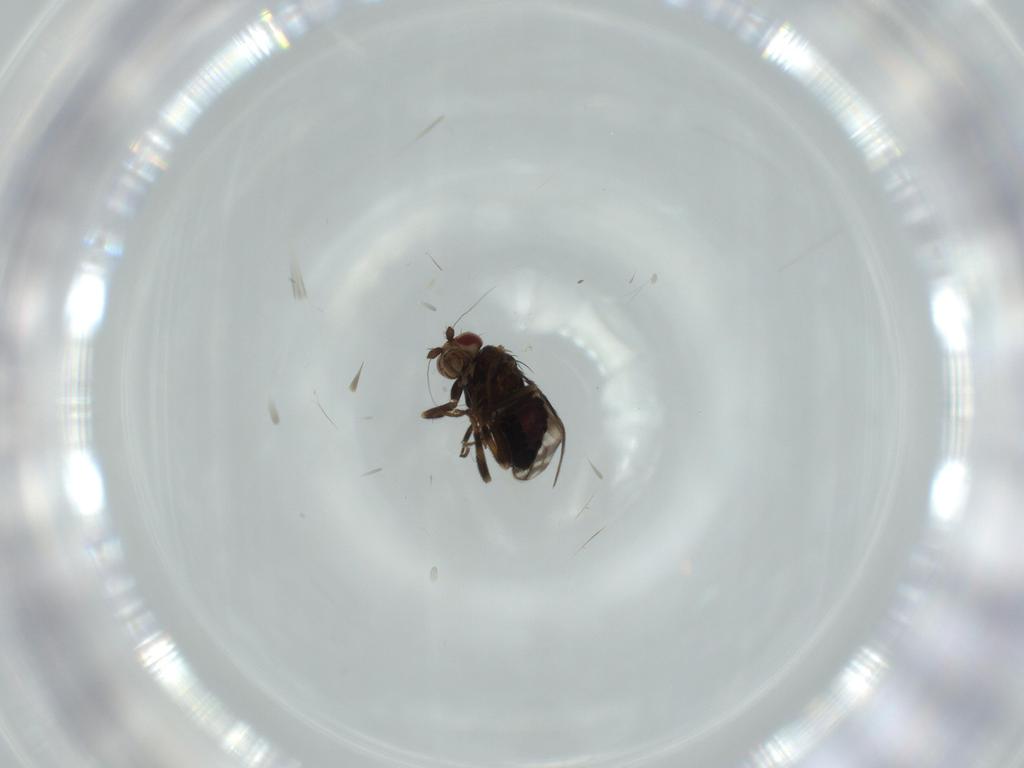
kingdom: Animalia
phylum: Arthropoda
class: Insecta
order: Diptera
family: Sphaeroceridae
